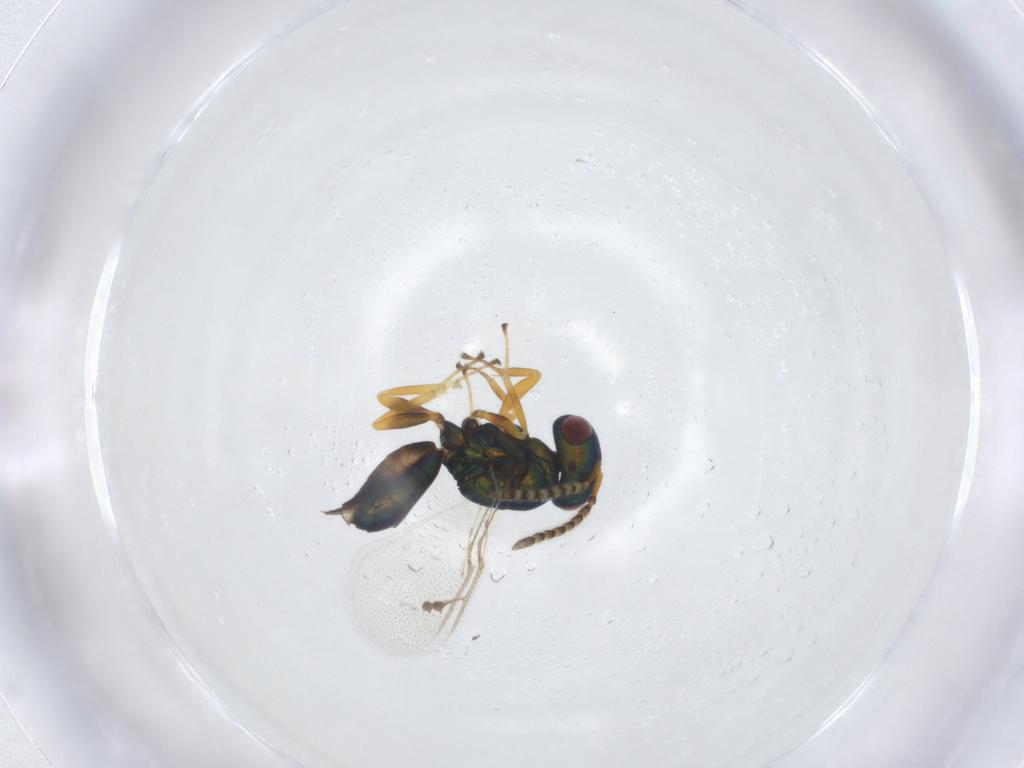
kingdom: Animalia
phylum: Arthropoda
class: Insecta
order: Hymenoptera
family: Pteromalidae
